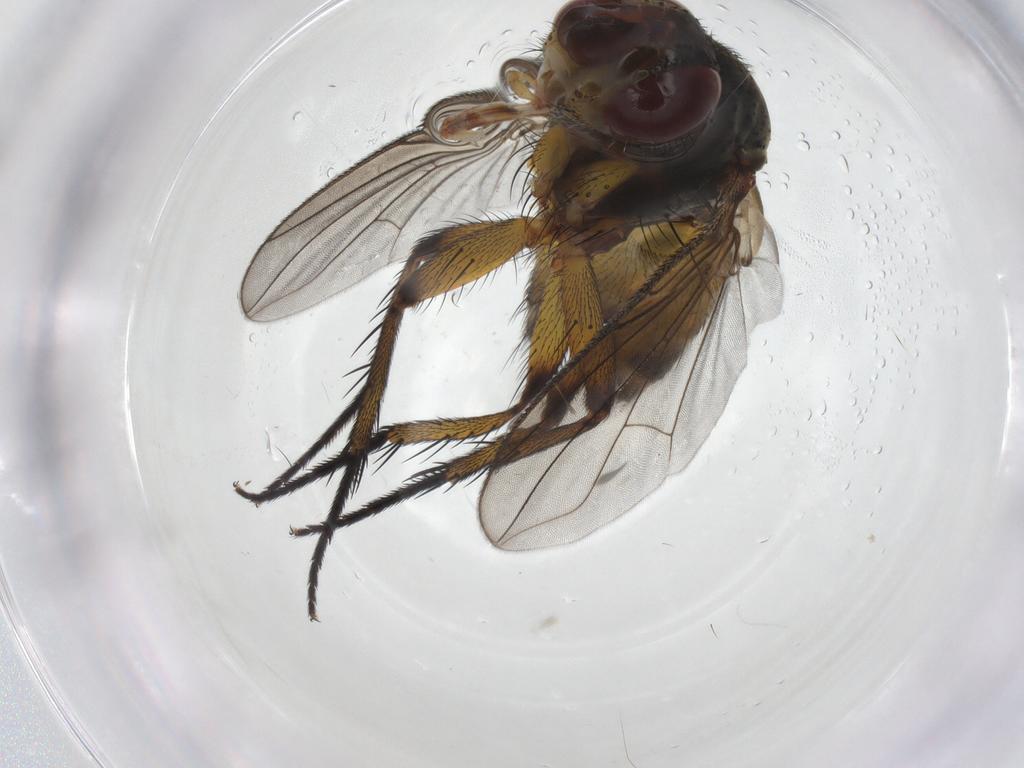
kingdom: Animalia
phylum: Arthropoda
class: Insecta
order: Diptera
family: Tachinidae
